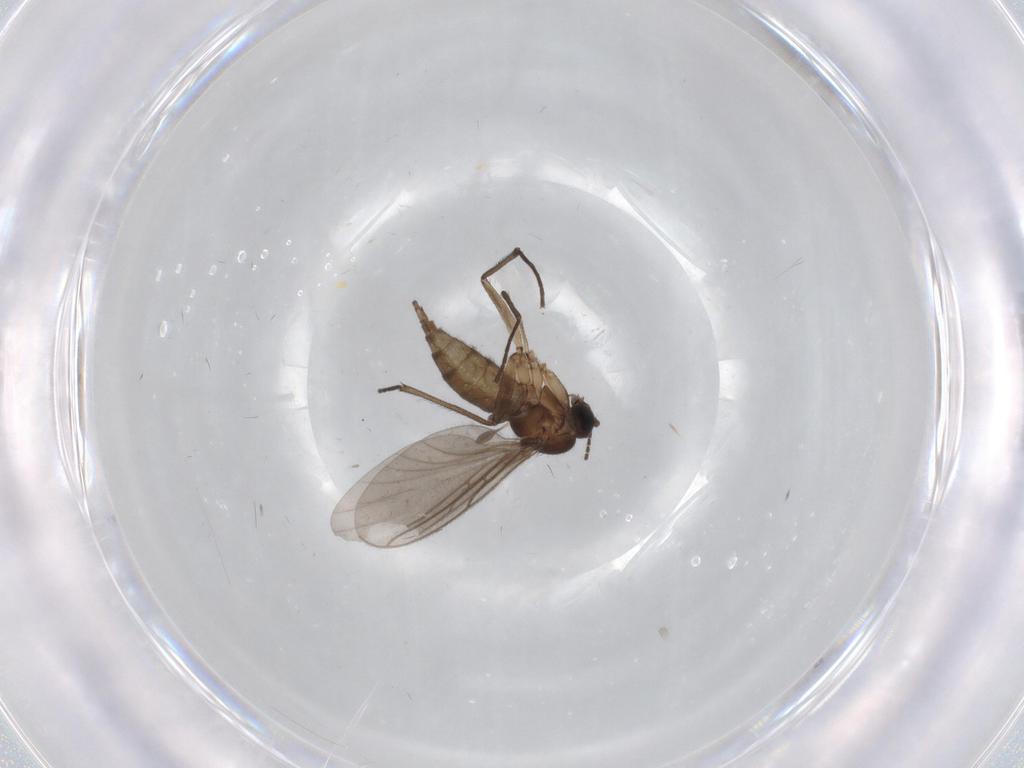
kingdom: Animalia
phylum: Arthropoda
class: Insecta
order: Diptera
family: Sciaridae
